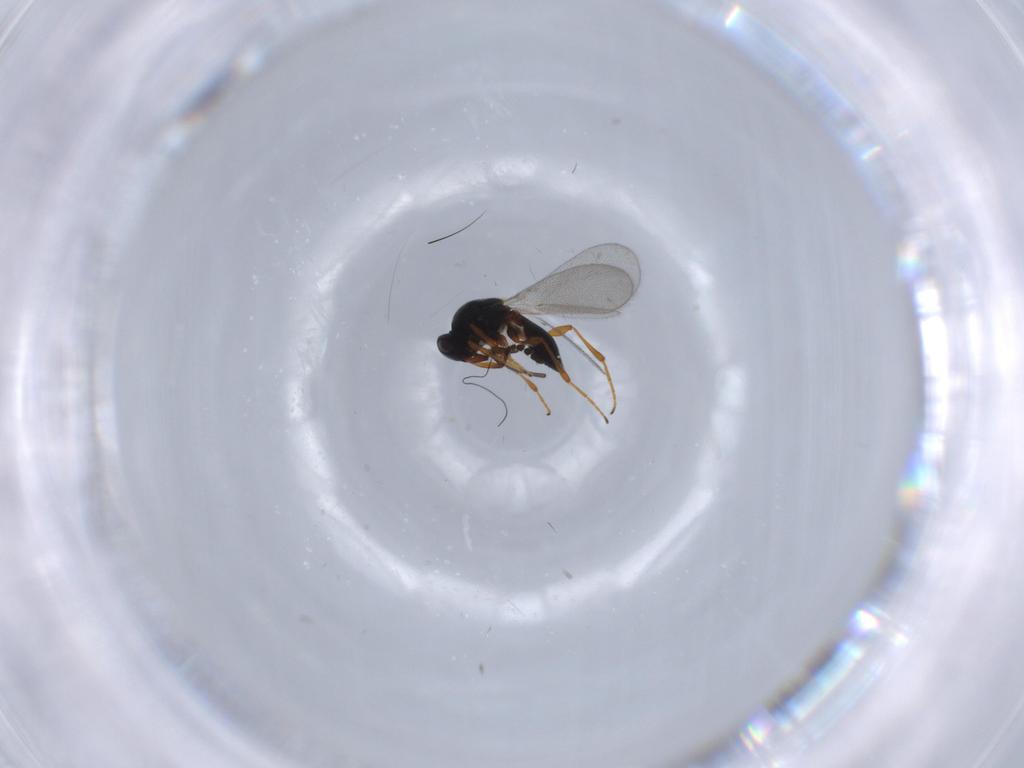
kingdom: Animalia
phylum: Arthropoda
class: Insecta
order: Hymenoptera
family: Platygastridae
